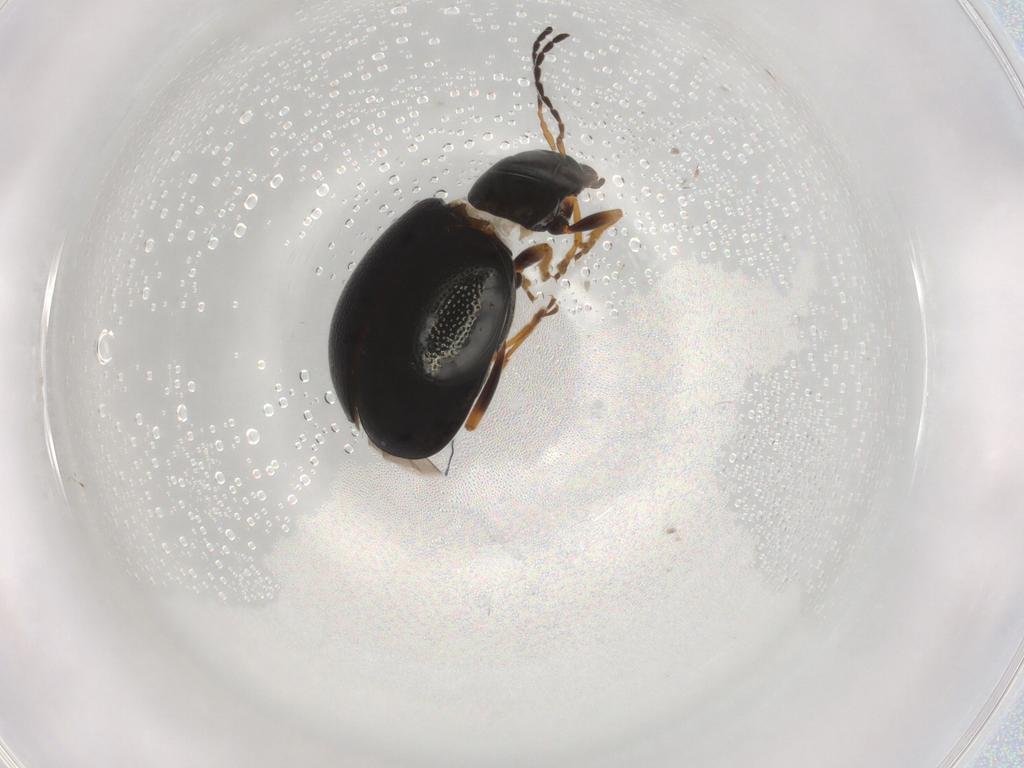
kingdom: Animalia
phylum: Arthropoda
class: Insecta
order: Coleoptera
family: Chrysomelidae
